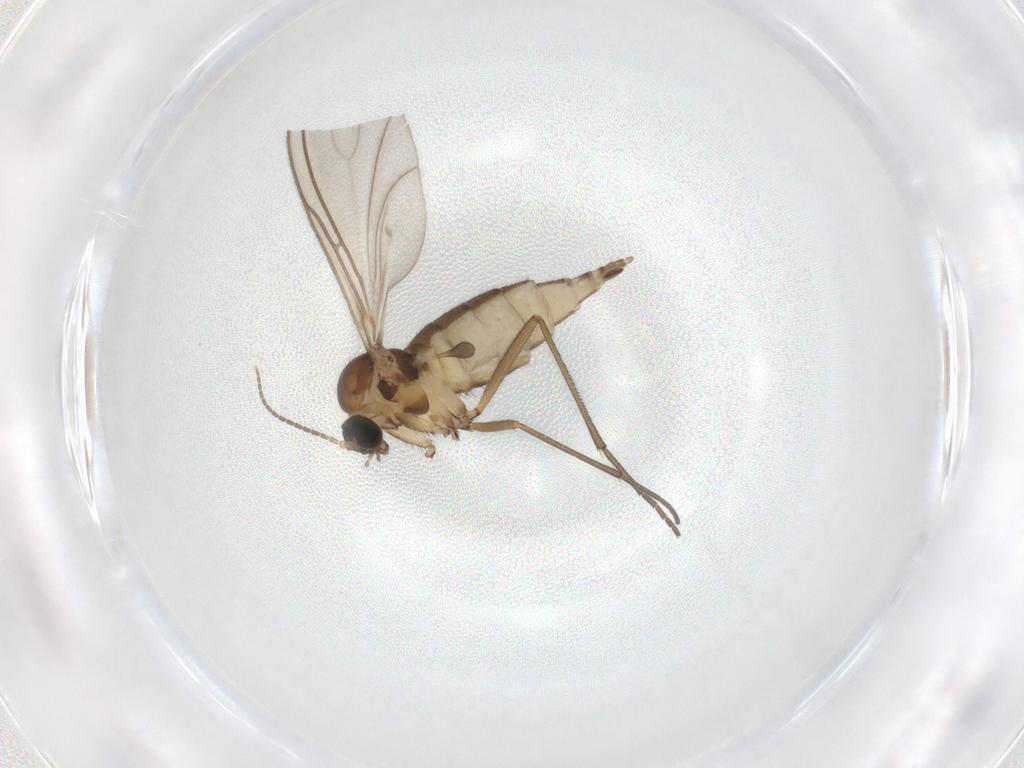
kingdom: Animalia
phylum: Arthropoda
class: Insecta
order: Diptera
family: Sciaridae
